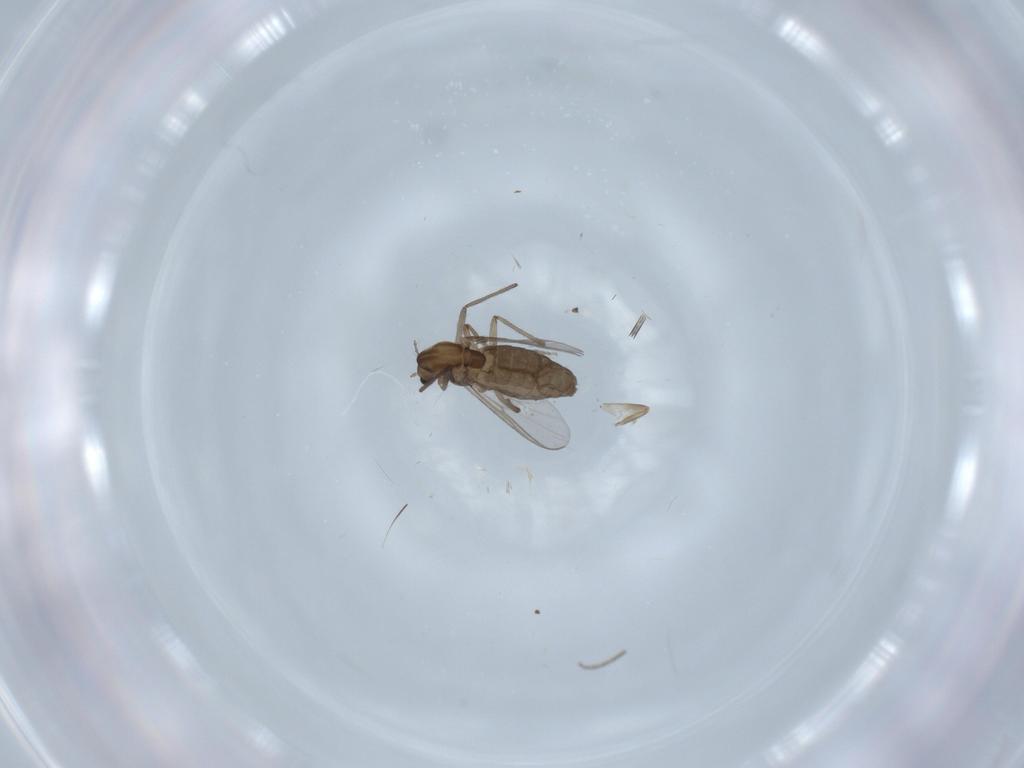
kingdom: Animalia
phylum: Arthropoda
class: Insecta
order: Diptera
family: Chironomidae
